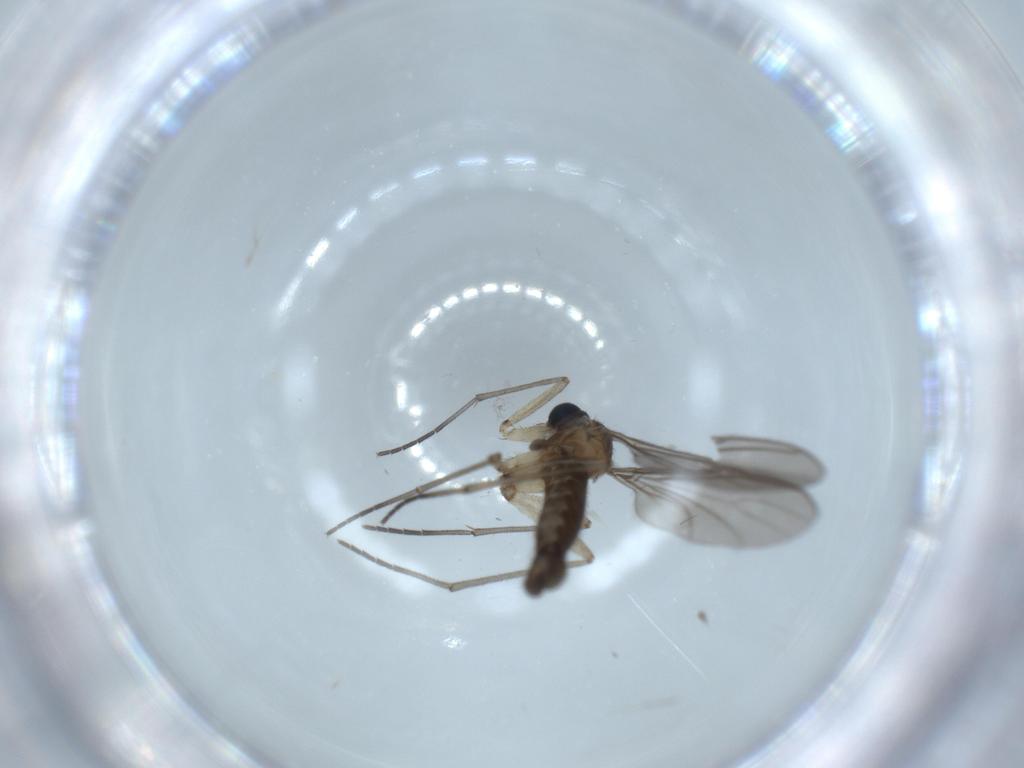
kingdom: Animalia
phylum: Arthropoda
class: Insecta
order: Diptera
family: Sciaridae
